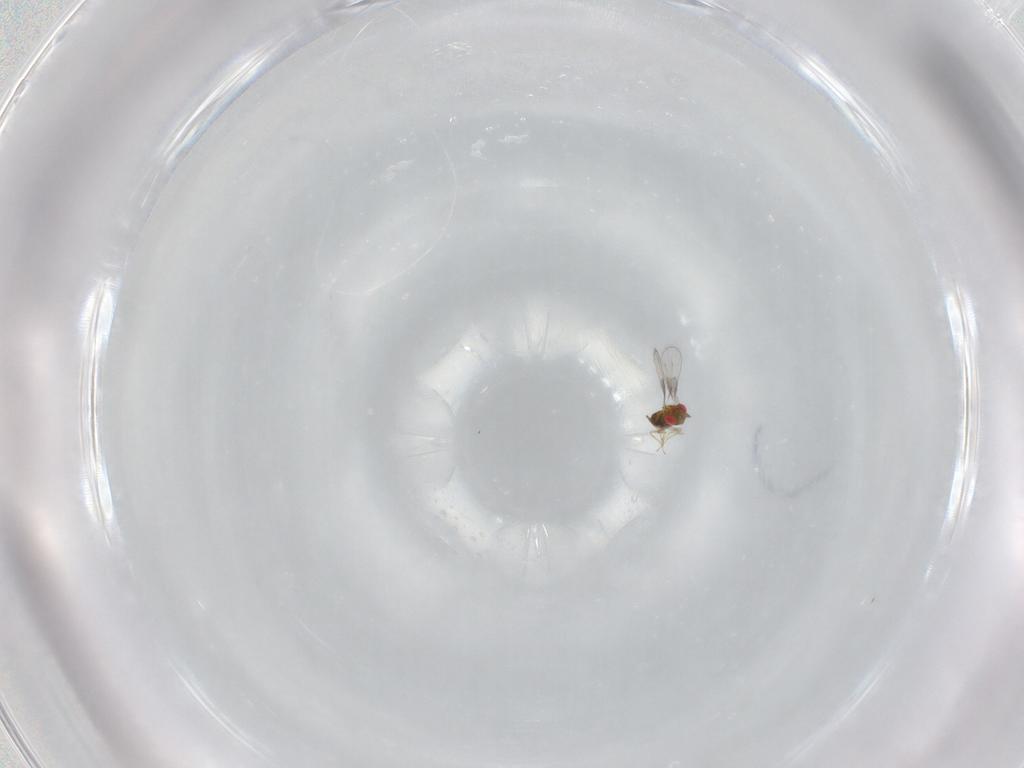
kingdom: Animalia
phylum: Arthropoda
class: Insecta
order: Hymenoptera
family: Trichogrammatidae
